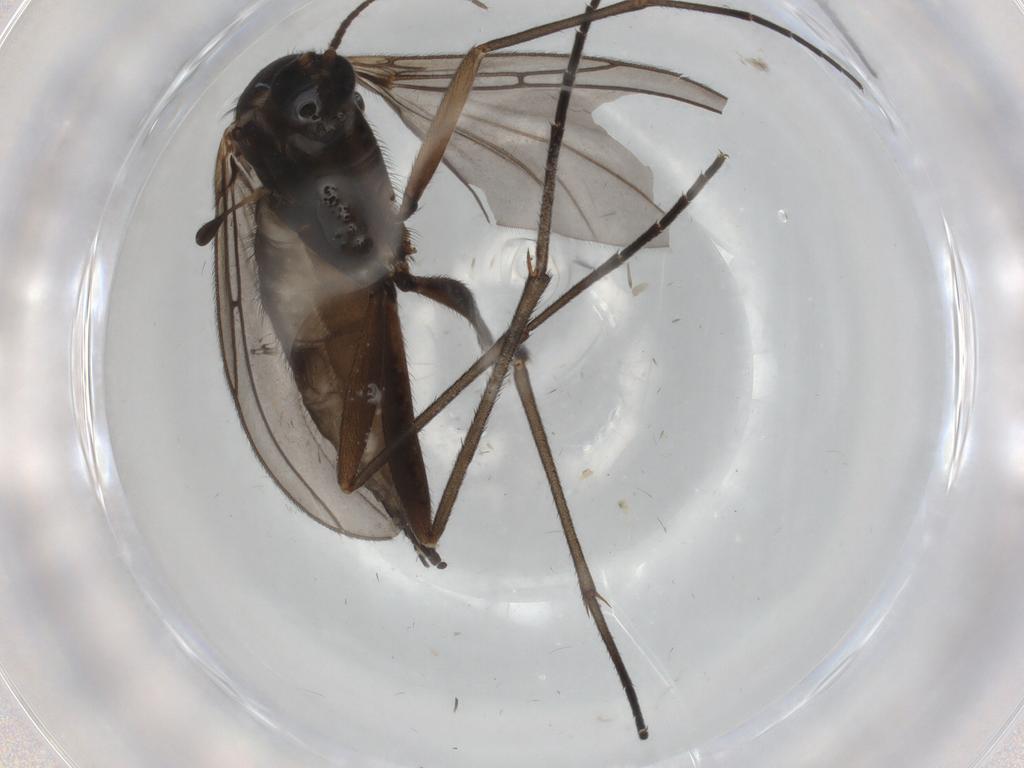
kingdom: Animalia
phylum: Arthropoda
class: Insecta
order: Diptera
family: Sciaridae
